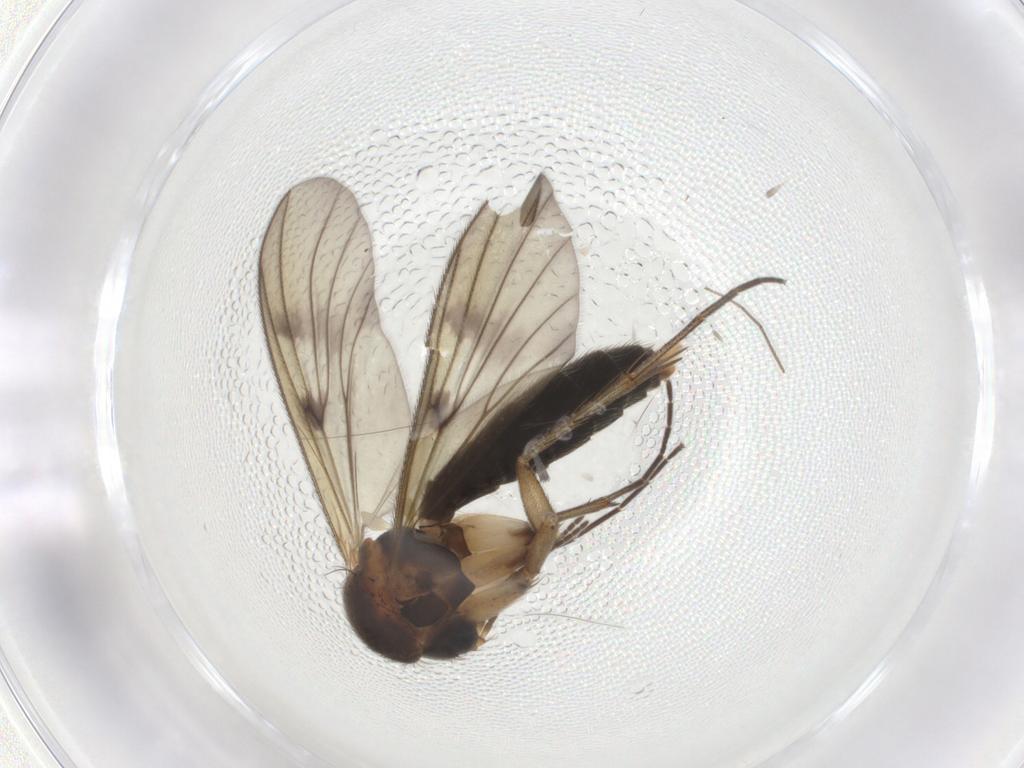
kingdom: Animalia
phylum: Arthropoda
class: Insecta
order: Diptera
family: Mycetophilidae
